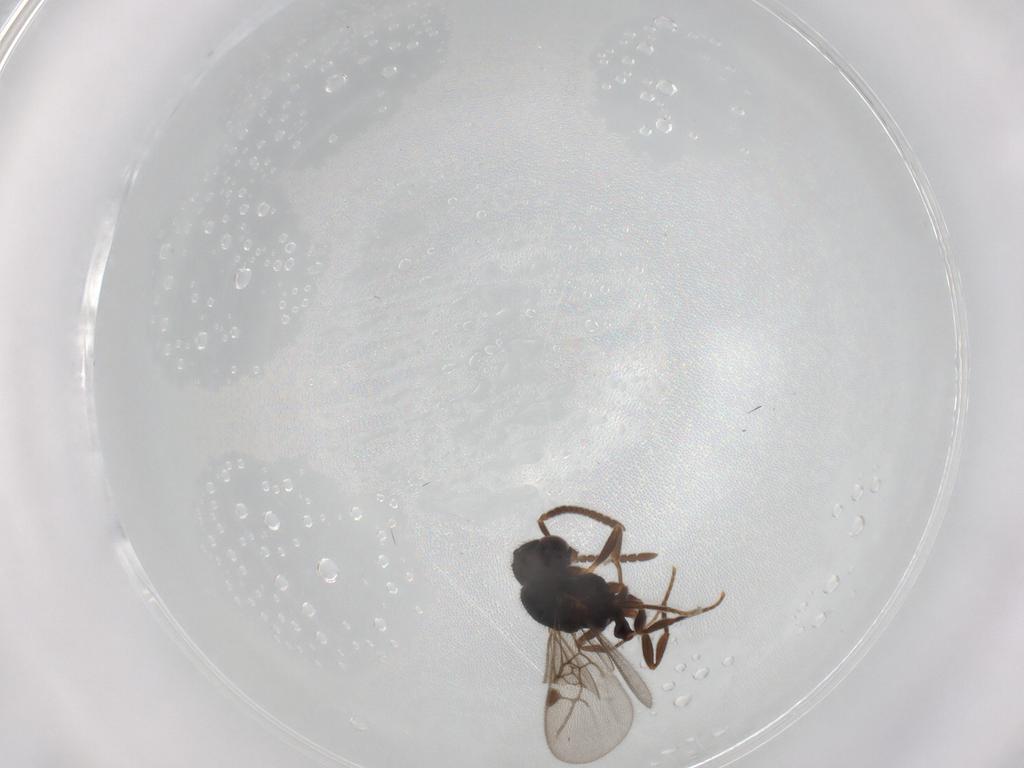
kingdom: Animalia
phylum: Arthropoda
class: Insecta
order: Hymenoptera
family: Formicidae
